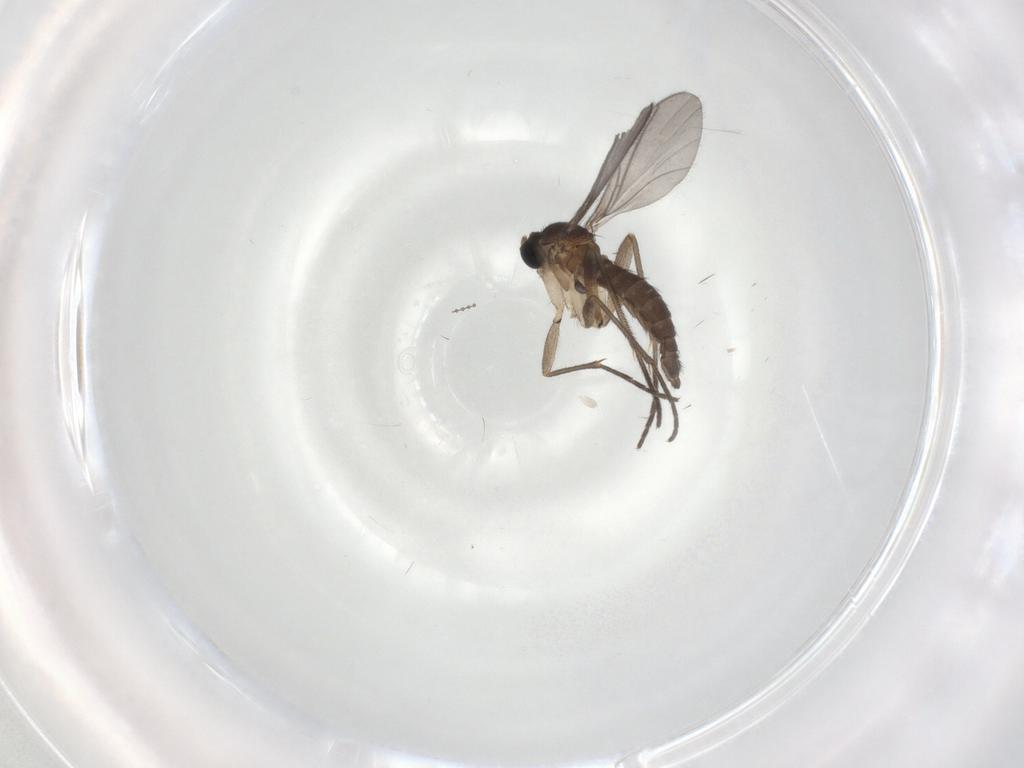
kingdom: Animalia
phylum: Arthropoda
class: Insecta
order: Diptera
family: Sciaridae
